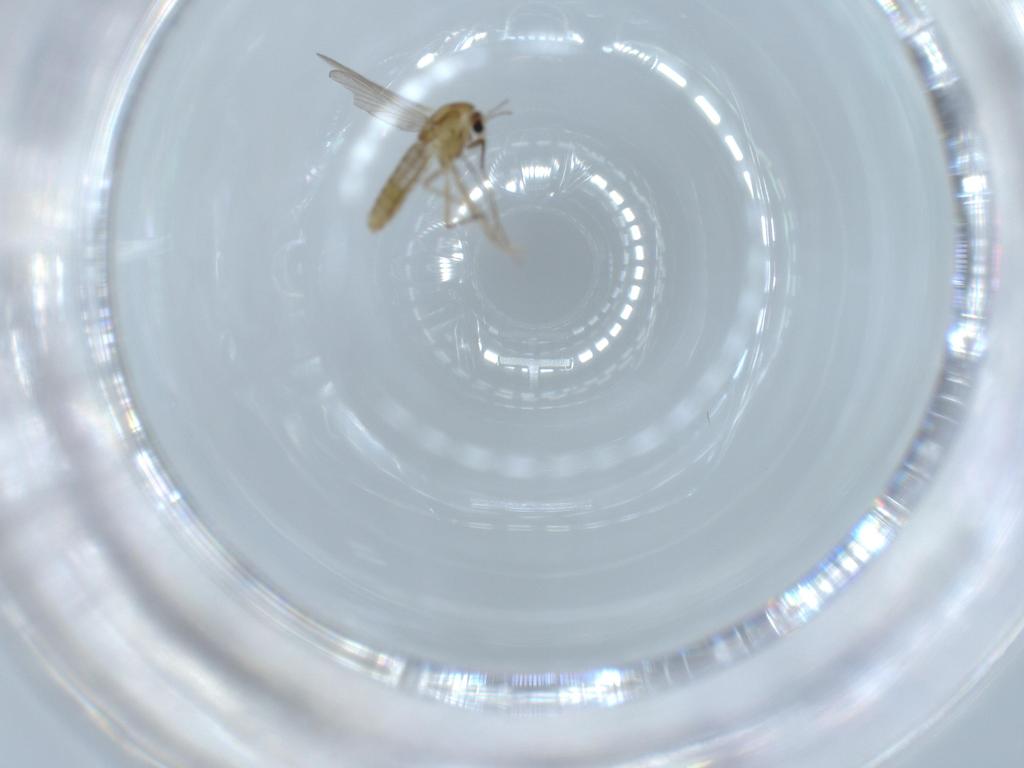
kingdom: Animalia
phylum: Arthropoda
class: Insecta
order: Diptera
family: Chironomidae
